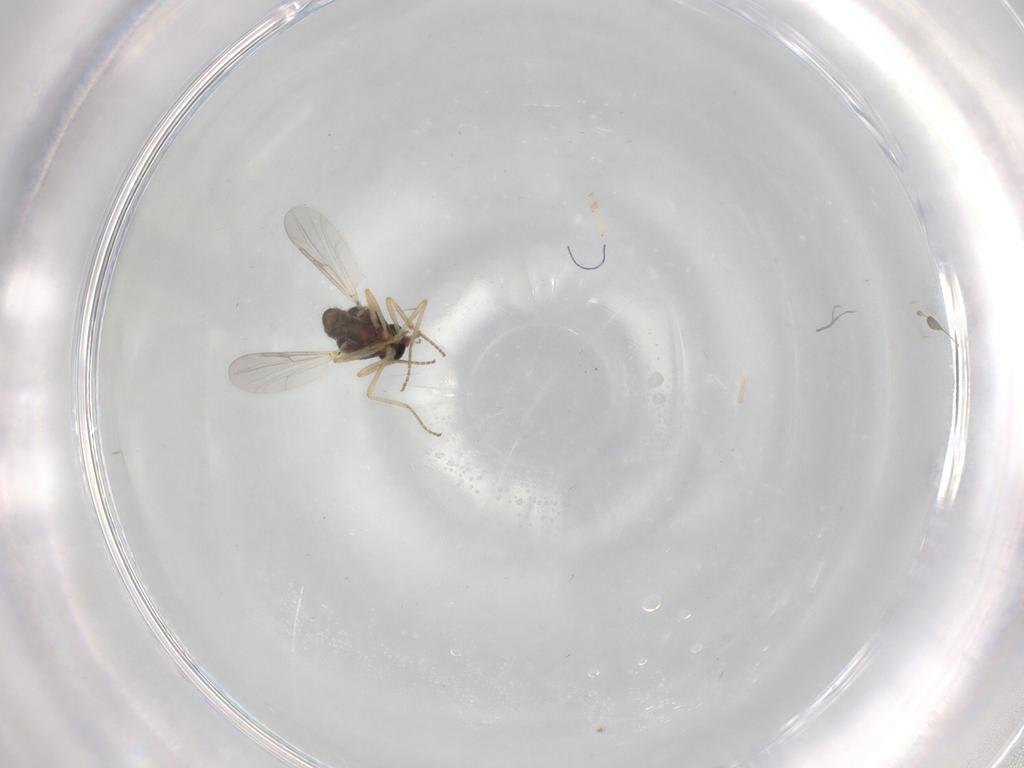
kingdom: Animalia
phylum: Arthropoda
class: Insecta
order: Diptera
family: Ceratopogonidae
